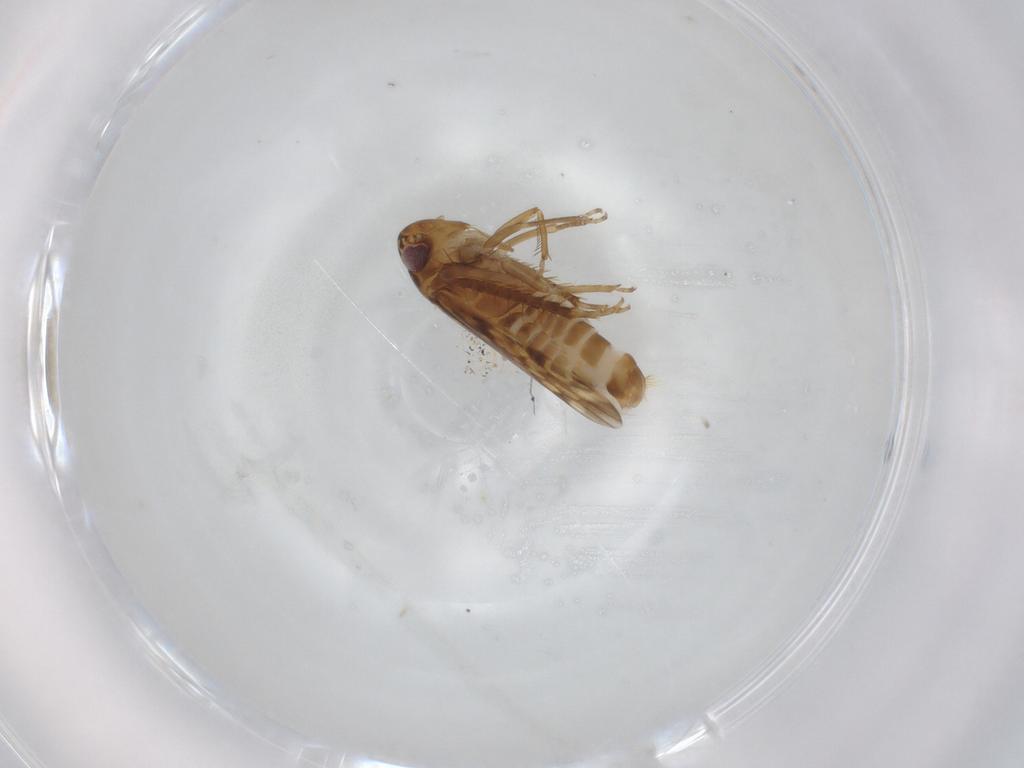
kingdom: Animalia
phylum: Arthropoda
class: Insecta
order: Hemiptera
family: Cicadellidae
